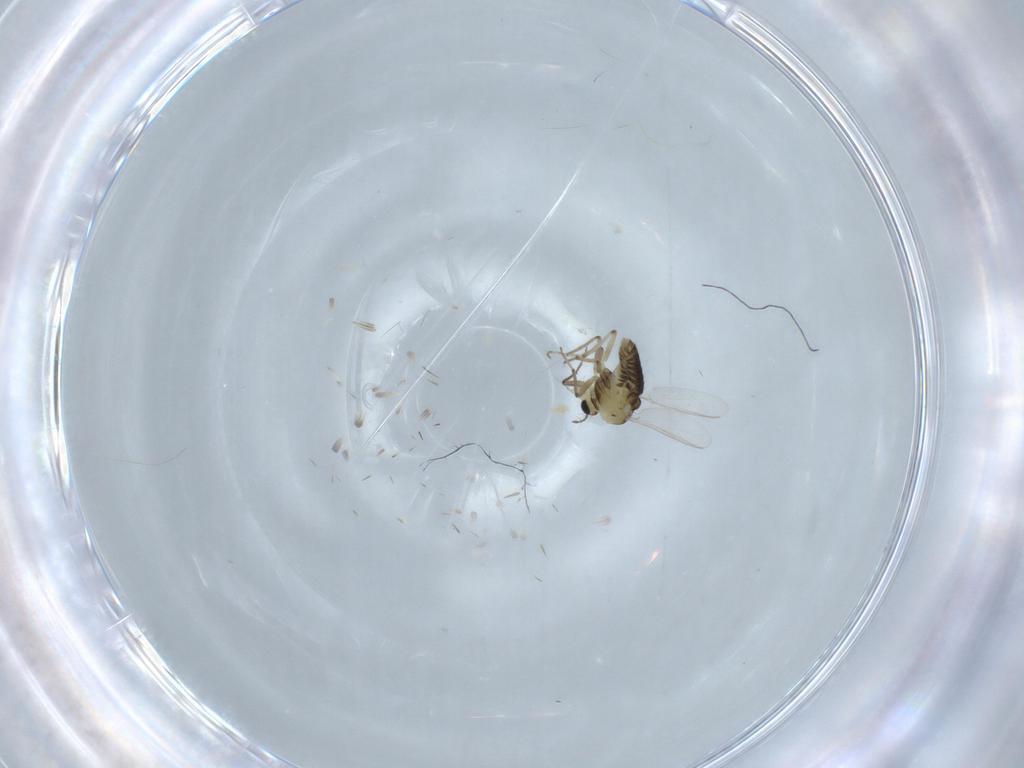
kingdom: Animalia
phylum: Arthropoda
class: Insecta
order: Diptera
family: Chironomidae
